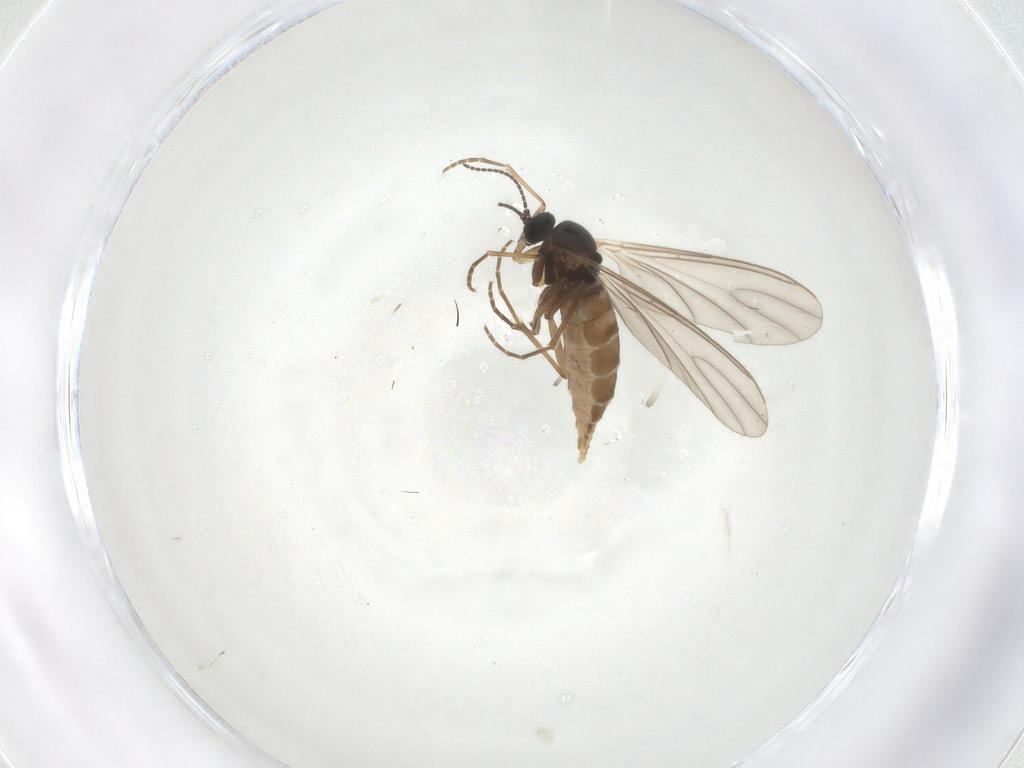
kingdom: Animalia
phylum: Arthropoda
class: Insecta
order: Diptera
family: Sciaridae
